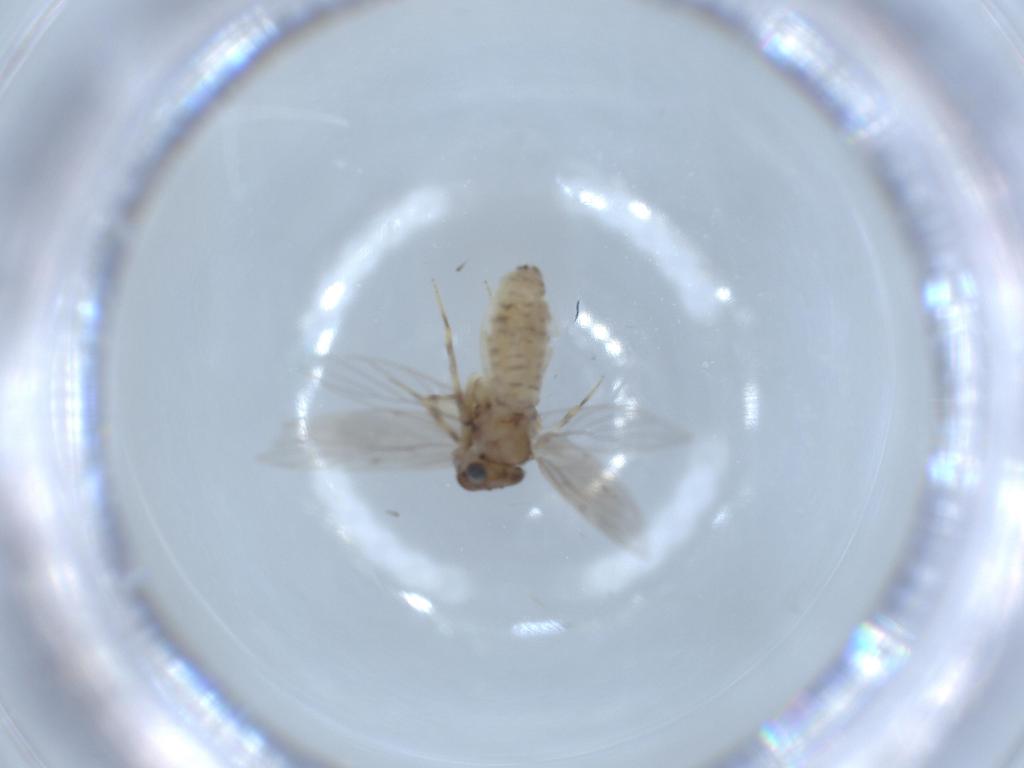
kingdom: Animalia
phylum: Arthropoda
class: Insecta
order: Psocodea
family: Lepidopsocidae
